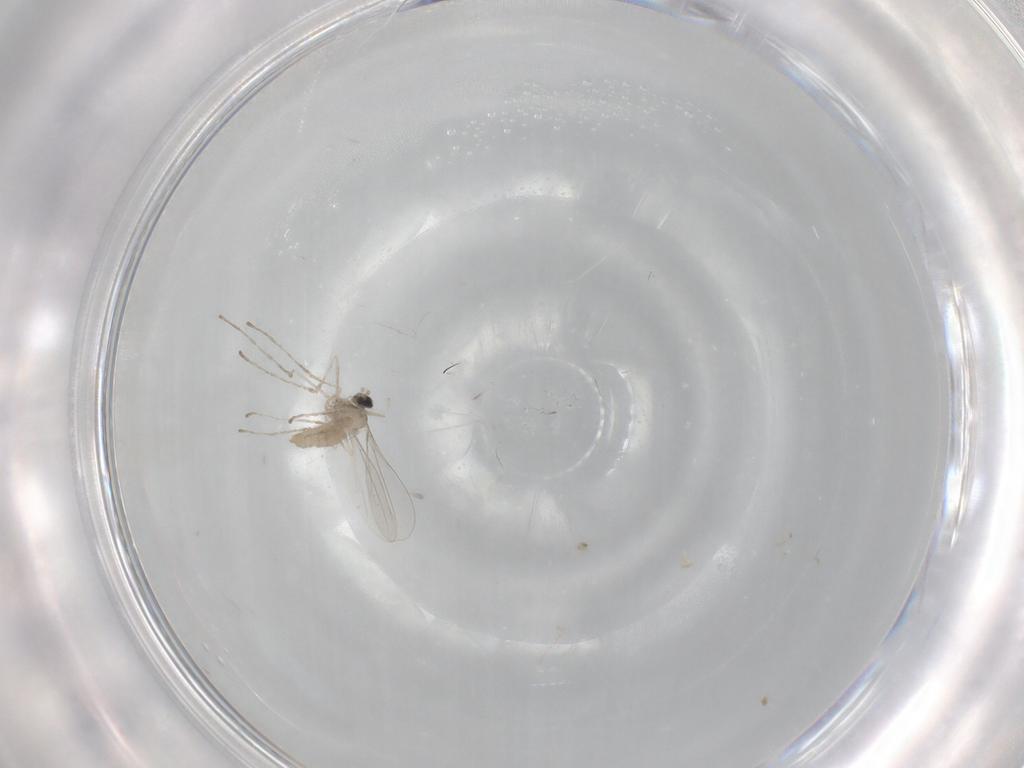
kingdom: Animalia
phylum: Arthropoda
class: Insecta
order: Diptera
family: Cecidomyiidae
